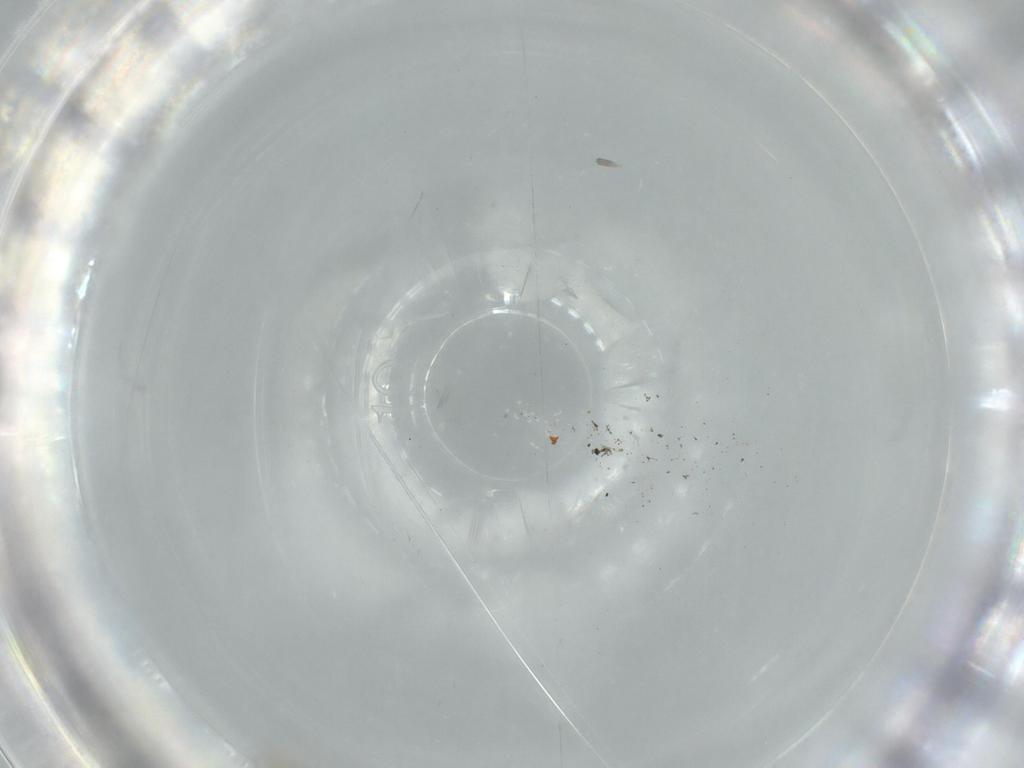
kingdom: Animalia
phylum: Arthropoda
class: Insecta
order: Diptera
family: Cecidomyiidae
